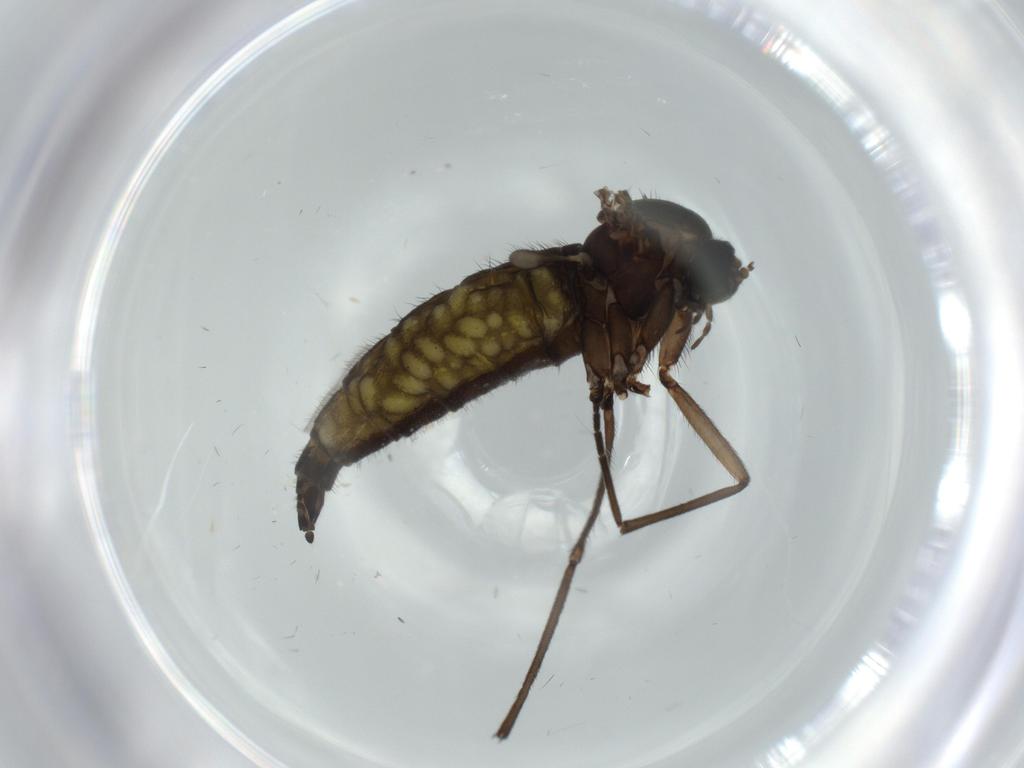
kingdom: Animalia
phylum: Arthropoda
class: Insecta
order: Diptera
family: Sciaridae
